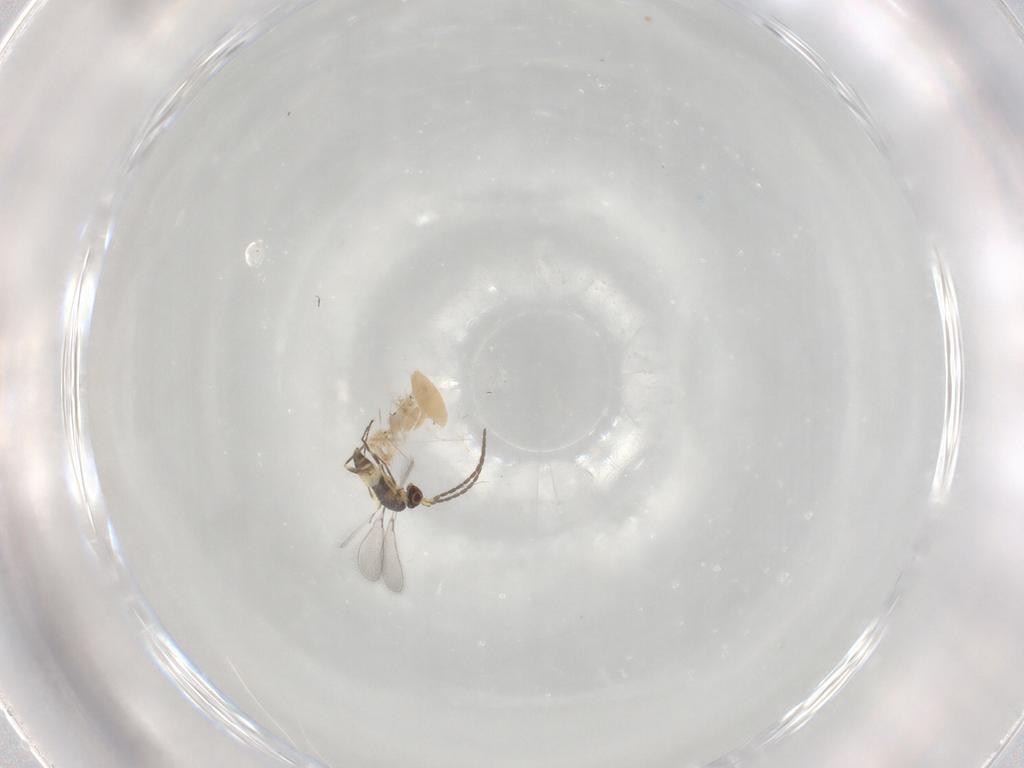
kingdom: Animalia
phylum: Arthropoda
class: Insecta
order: Hymenoptera
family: Mymaridae
